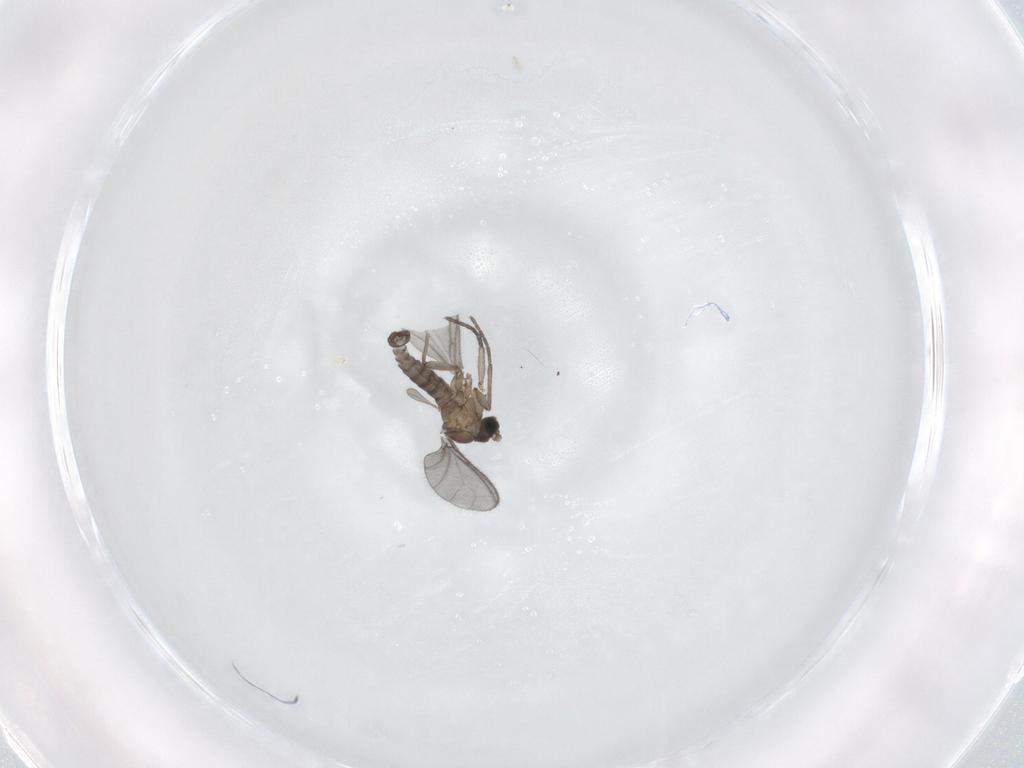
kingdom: Animalia
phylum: Arthropoda
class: Insecta
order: Diptera
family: Sciaridae
